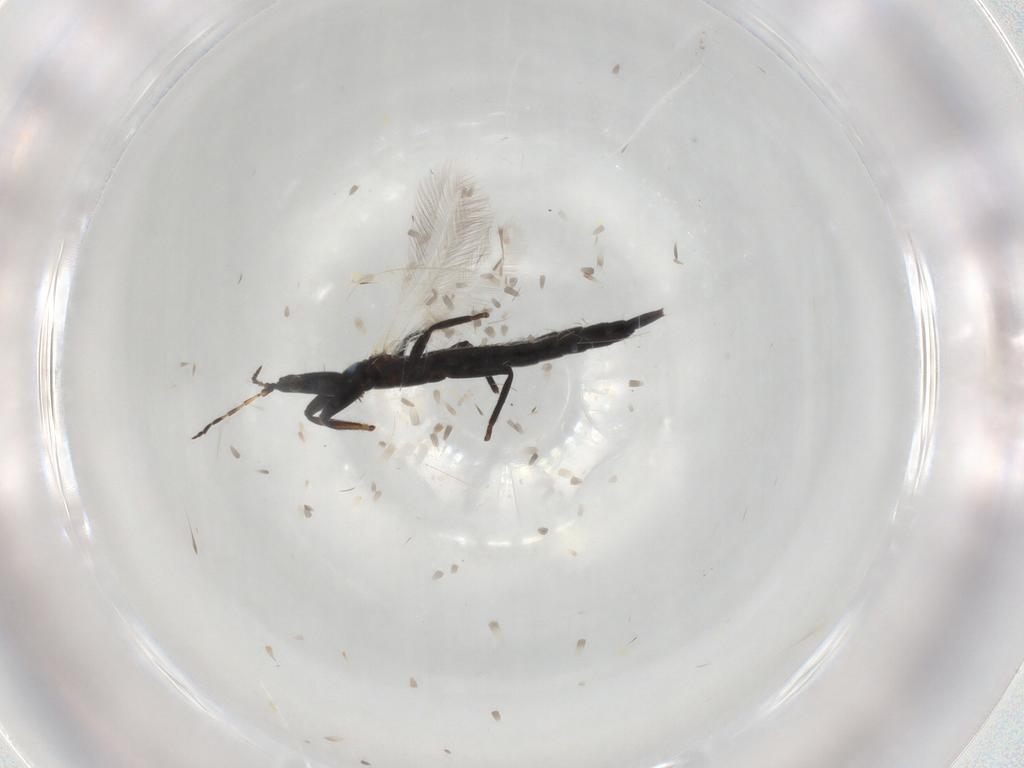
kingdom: Animalia
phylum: Arthropoda
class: Insecta
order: Thysanoptera
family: Phlaeothripidae
